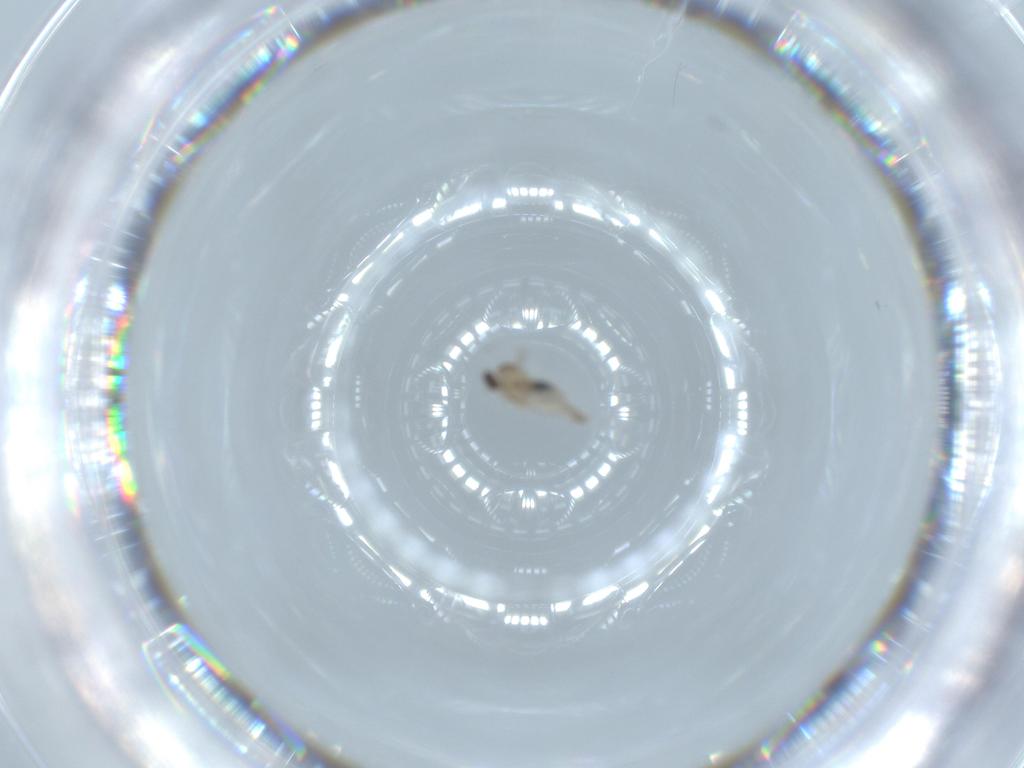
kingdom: Animalia
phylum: Arthropoda
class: Insecta
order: Diptera
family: Cecidomyiidae
